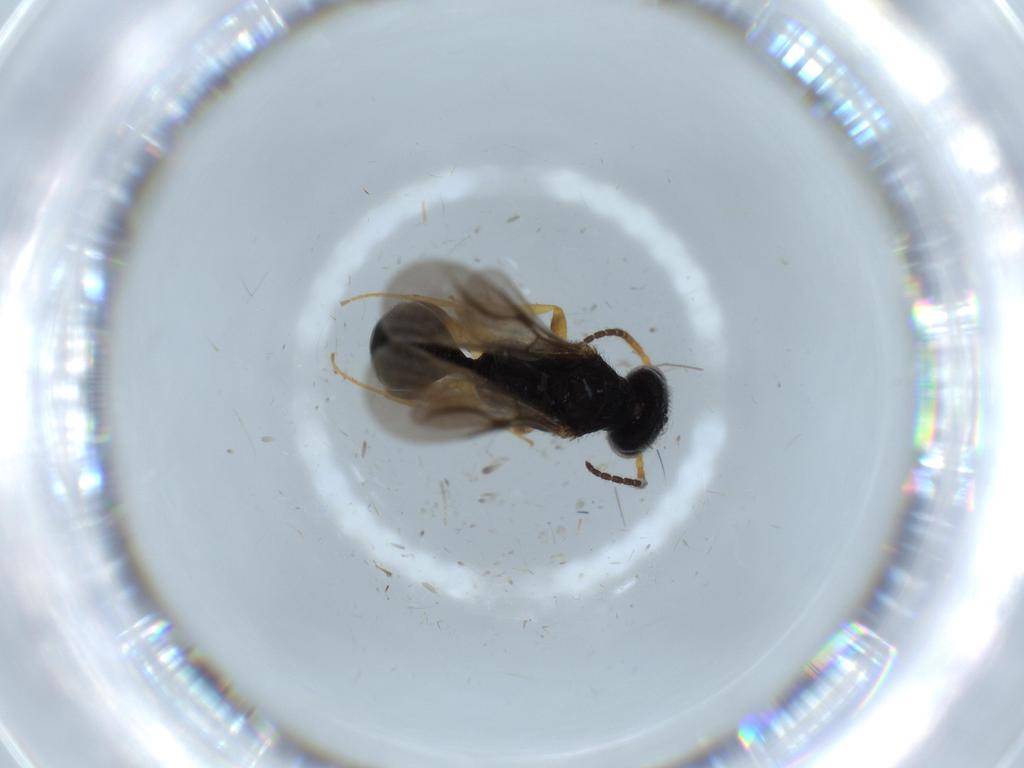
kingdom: Animalia
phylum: Arthropoda
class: Insecta
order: Hymenoptera
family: Bethylidae
